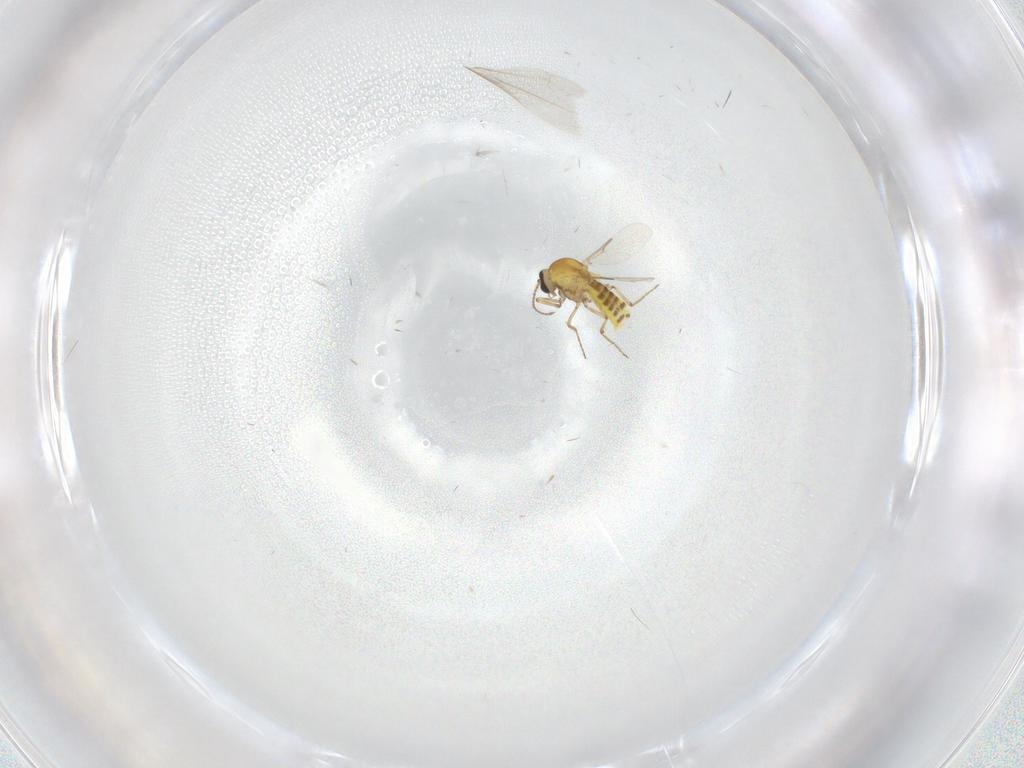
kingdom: Animalia
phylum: Arthropoda
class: Insecta
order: Diptera
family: Ceratopogonidae
